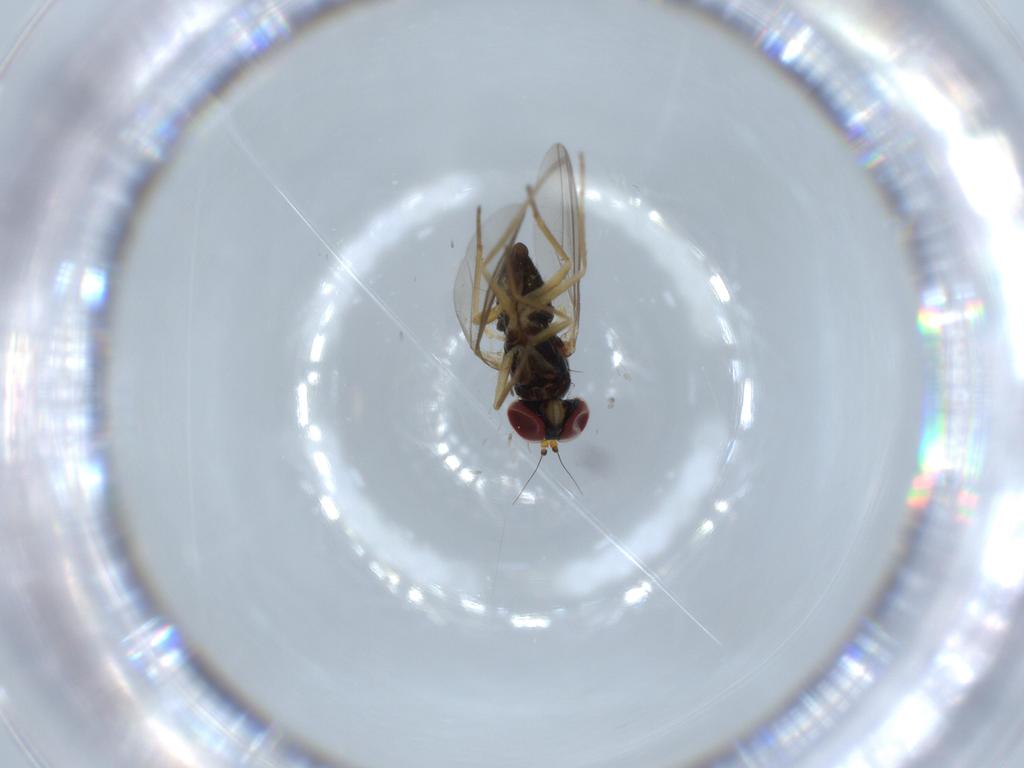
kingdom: Animalia
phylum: Arthropoda
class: Insecta
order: Diptera
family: Dolichopodidae
